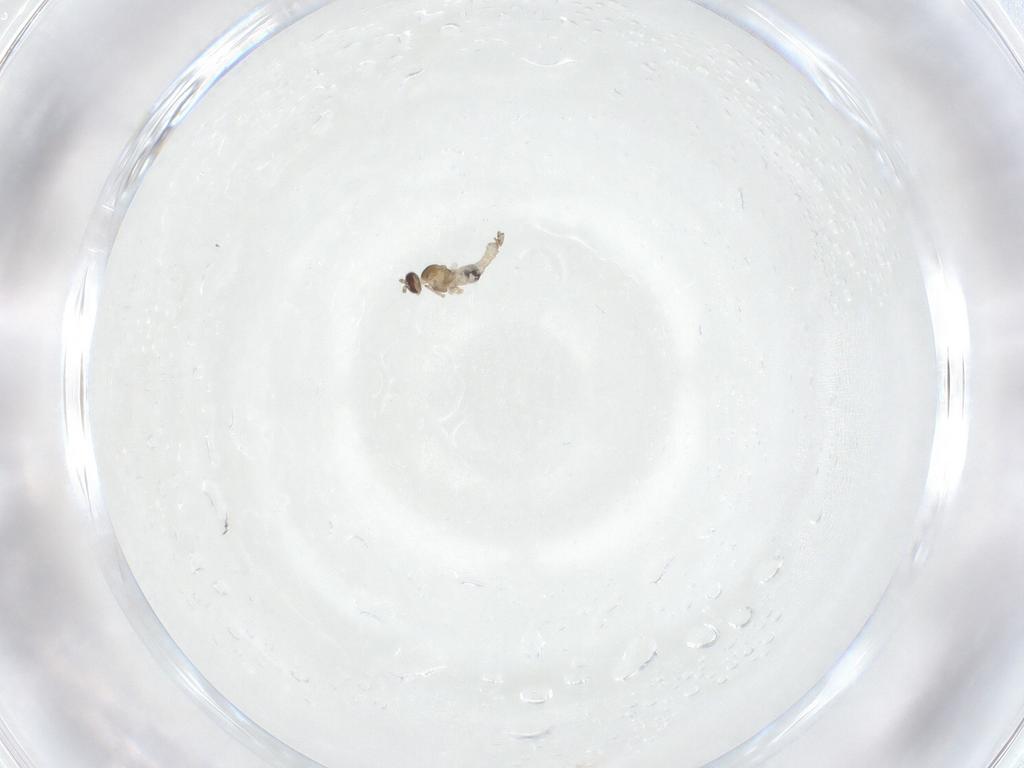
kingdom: Animalia
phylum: Arthropoda
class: Insecta
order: Diptera
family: Cecidomyiidae
